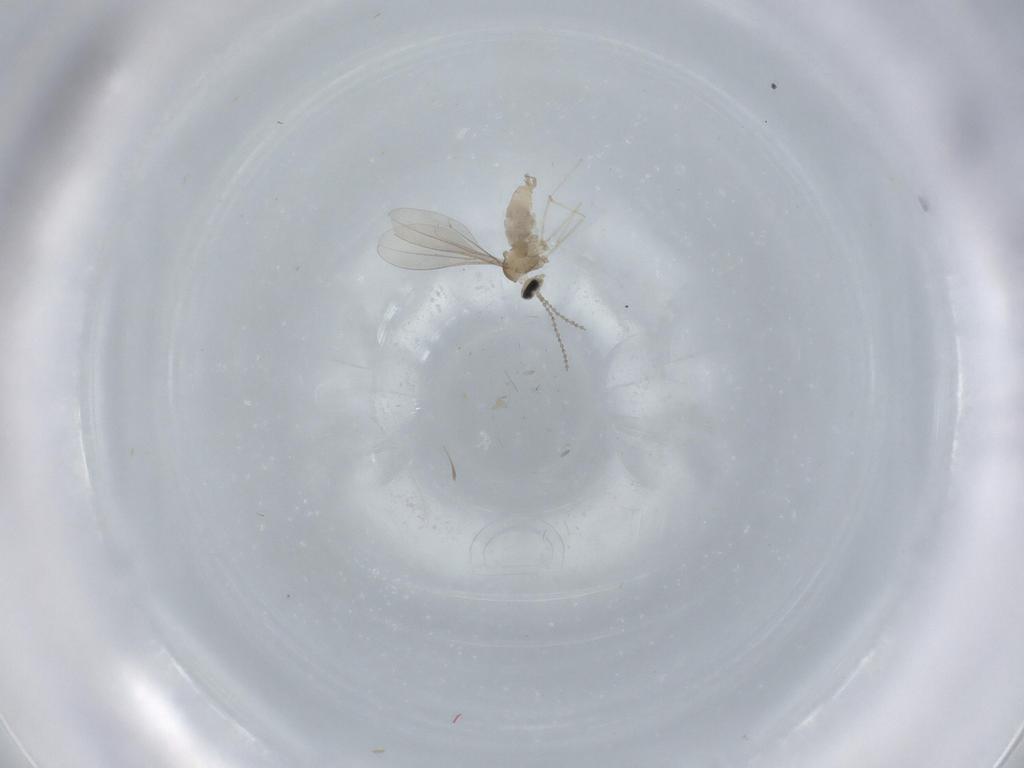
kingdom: Animalia
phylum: Arthropoda
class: Insecta
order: Diptera
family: Cecidomyiidae
